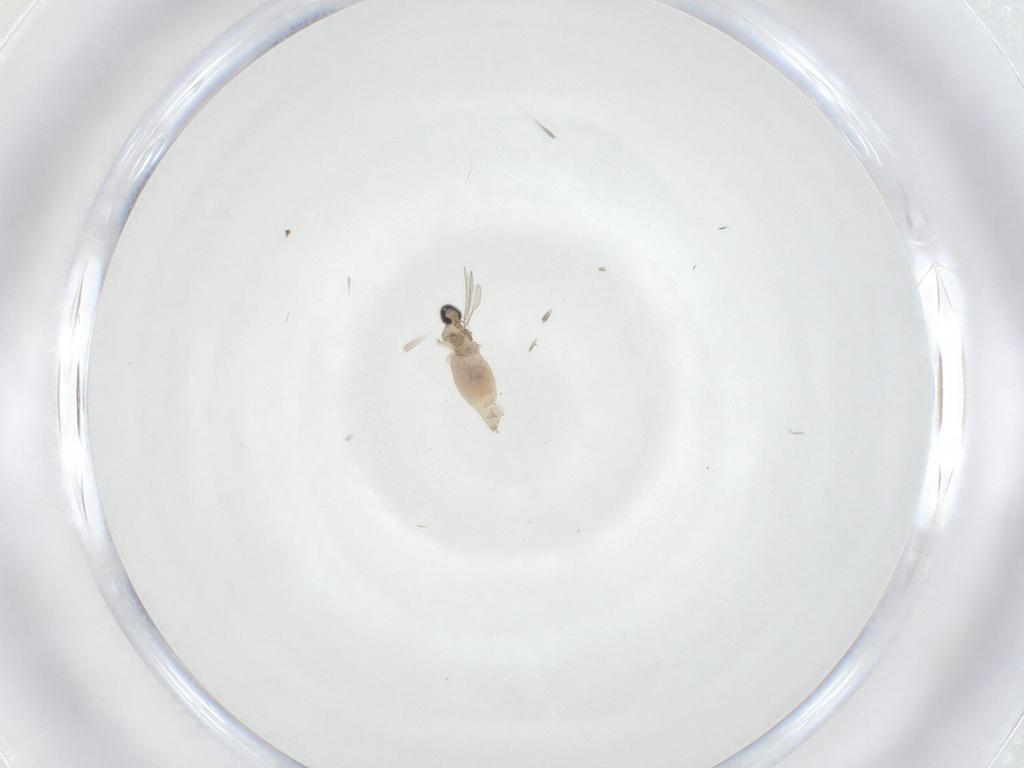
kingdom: Animalia
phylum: Arthropoda
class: Insecta
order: Diptera
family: Cecidomyiidae
